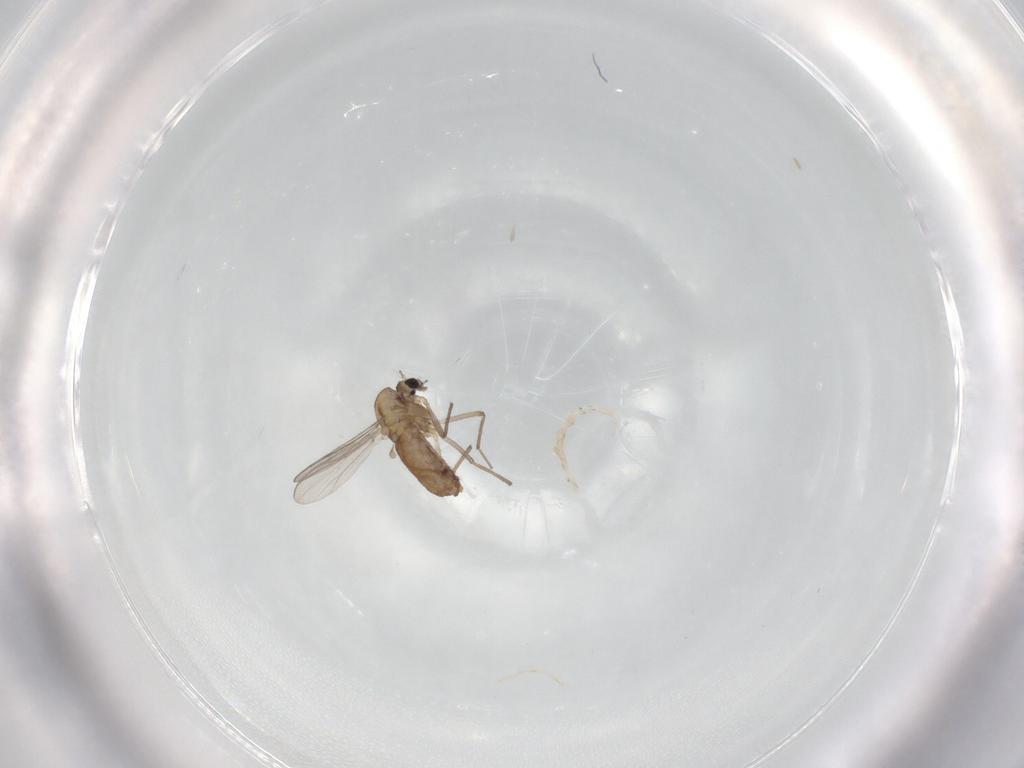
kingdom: Animalia
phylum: Arthropoda
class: Insecta
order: Diptera
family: Chironomidae
